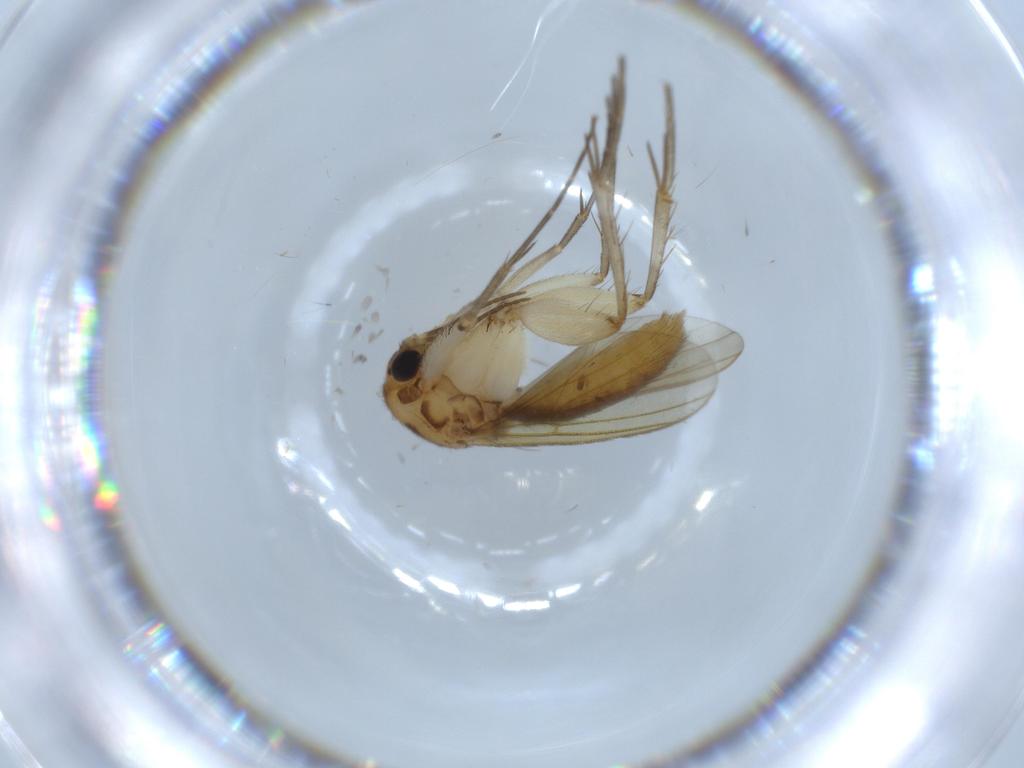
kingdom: Animalia
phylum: Arthropoda
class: Insecta
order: Diptera
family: Mycetophilidae
